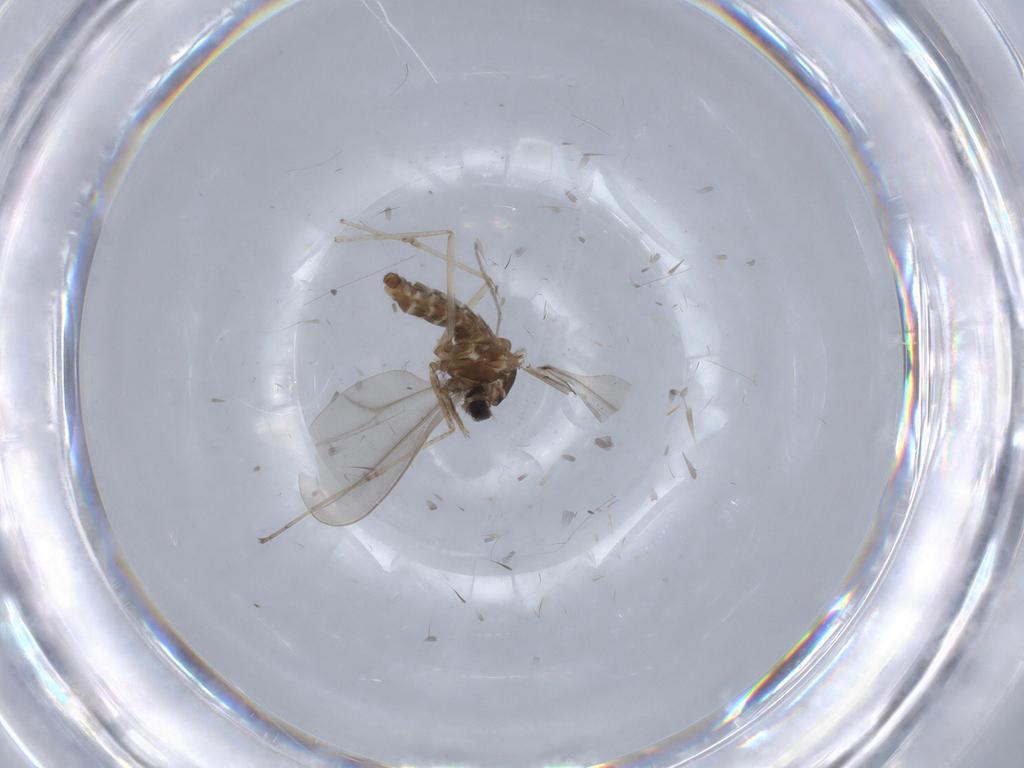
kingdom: Animalia
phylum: Arthropoda
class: Insecta
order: Diptera
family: Cecidomyiidae
